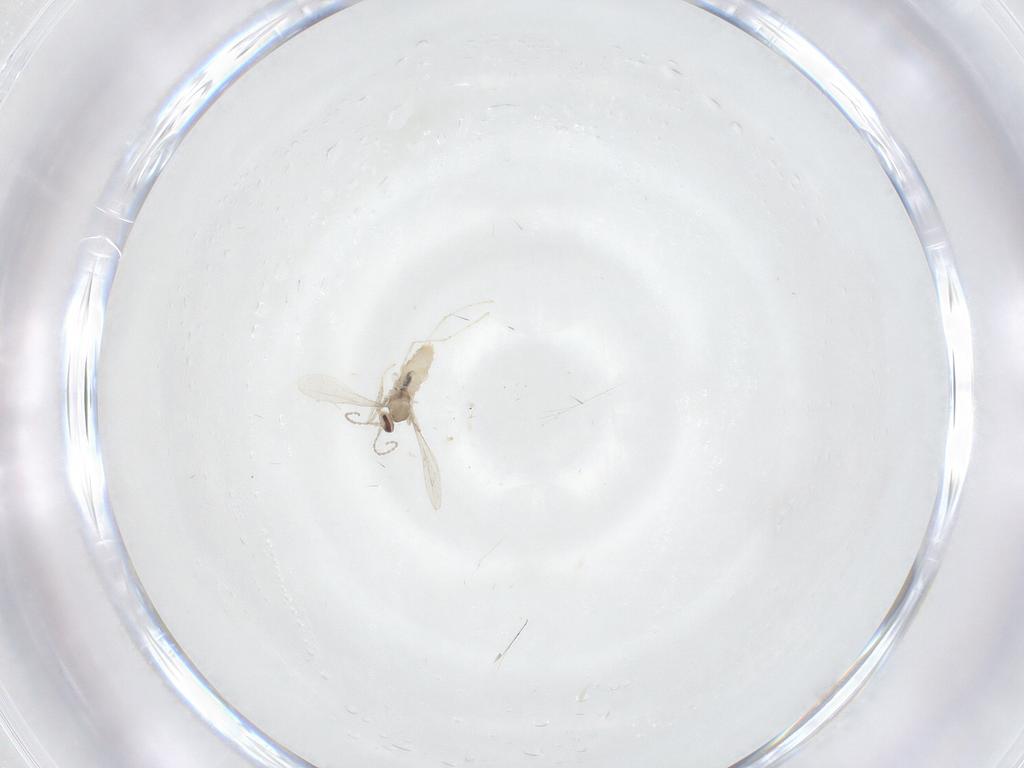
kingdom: Animalia
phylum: Arthropoda
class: Insecta
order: Diptera
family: Cecidomyiidae
